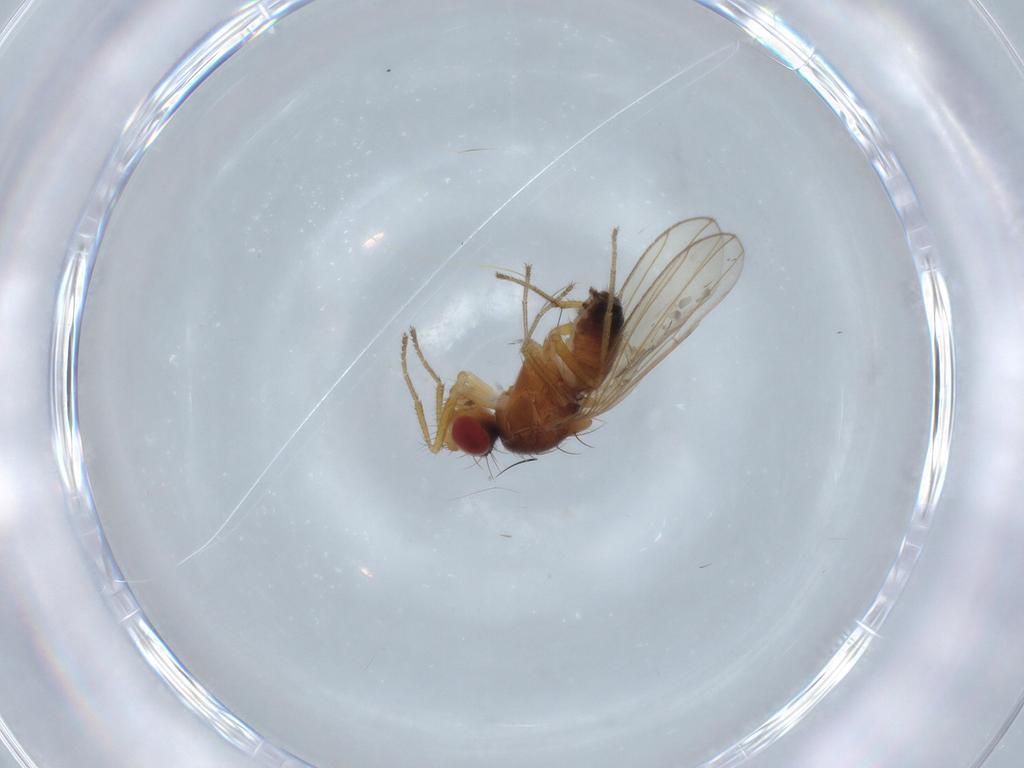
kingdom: Animalia
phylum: Arthropoda
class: Insecta
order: Diptera
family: Drosophilidae
